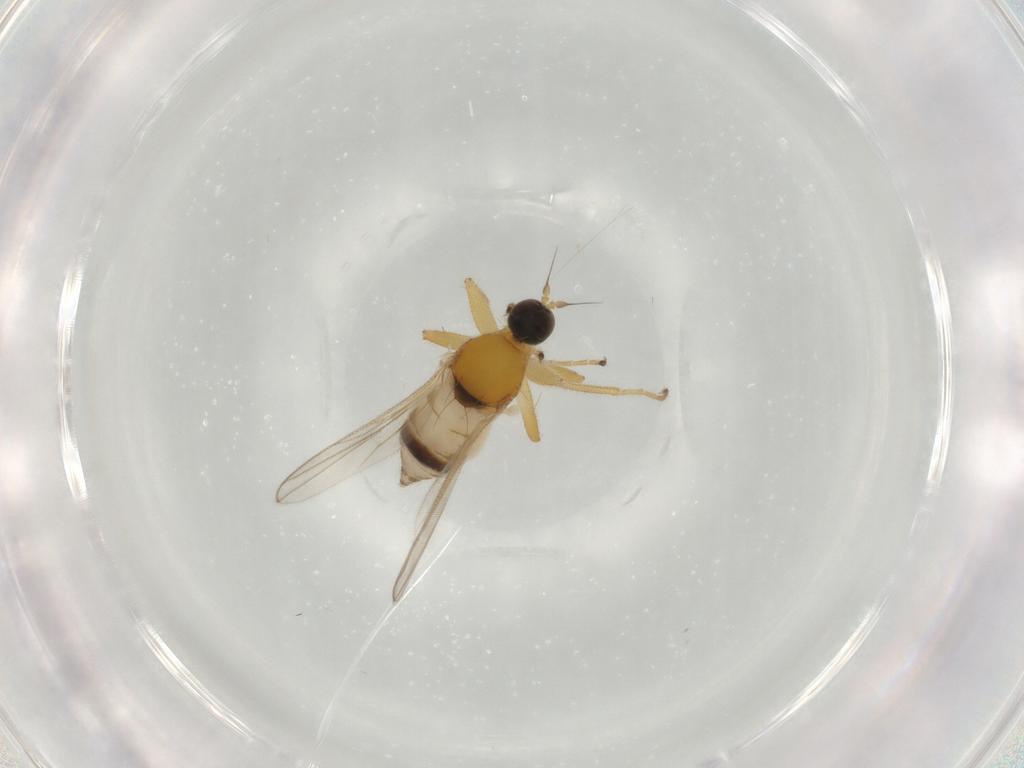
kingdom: Animalia
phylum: Arthropoda
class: Insecta
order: Diptera
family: Hybotidae
